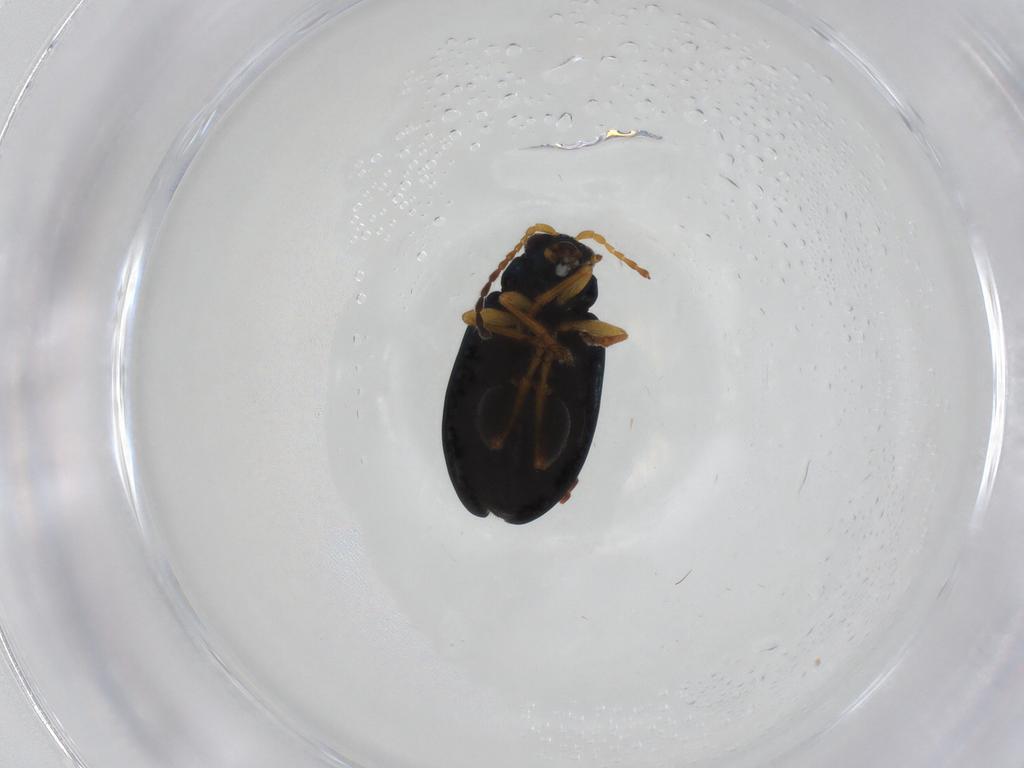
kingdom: Animalia
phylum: Arthropoda
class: Insecta
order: Coleoptera
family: Chrysomelidae
